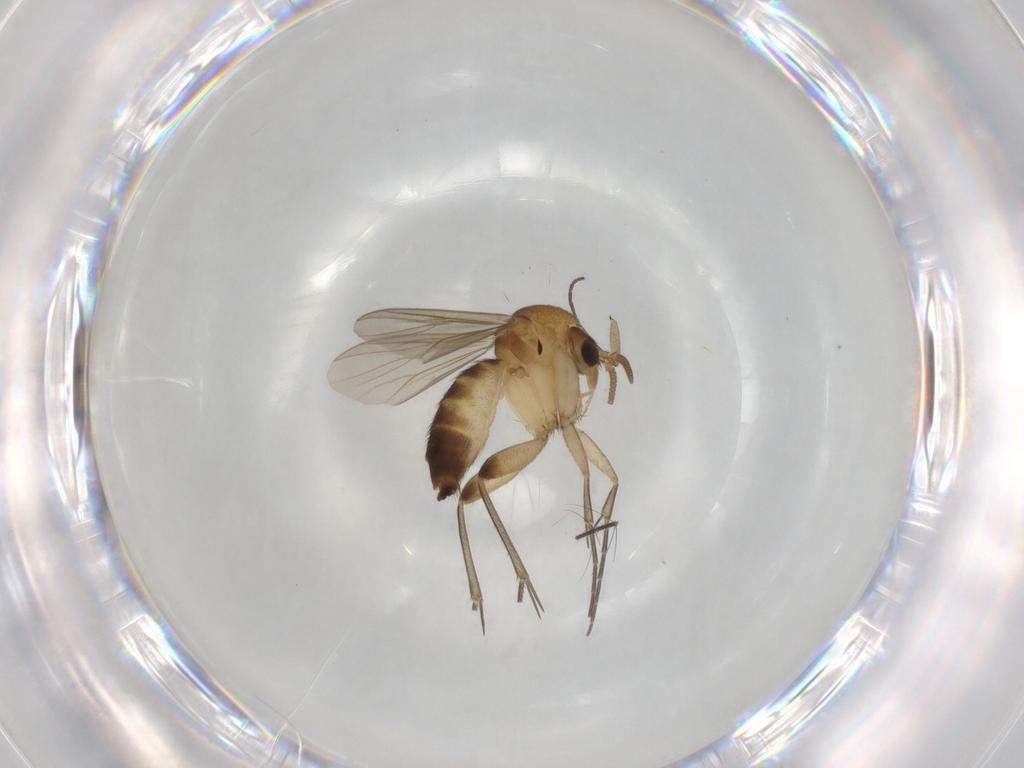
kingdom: Animalia
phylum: Arthropoda
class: Insecta
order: Diptera
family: Mycetophilidae
